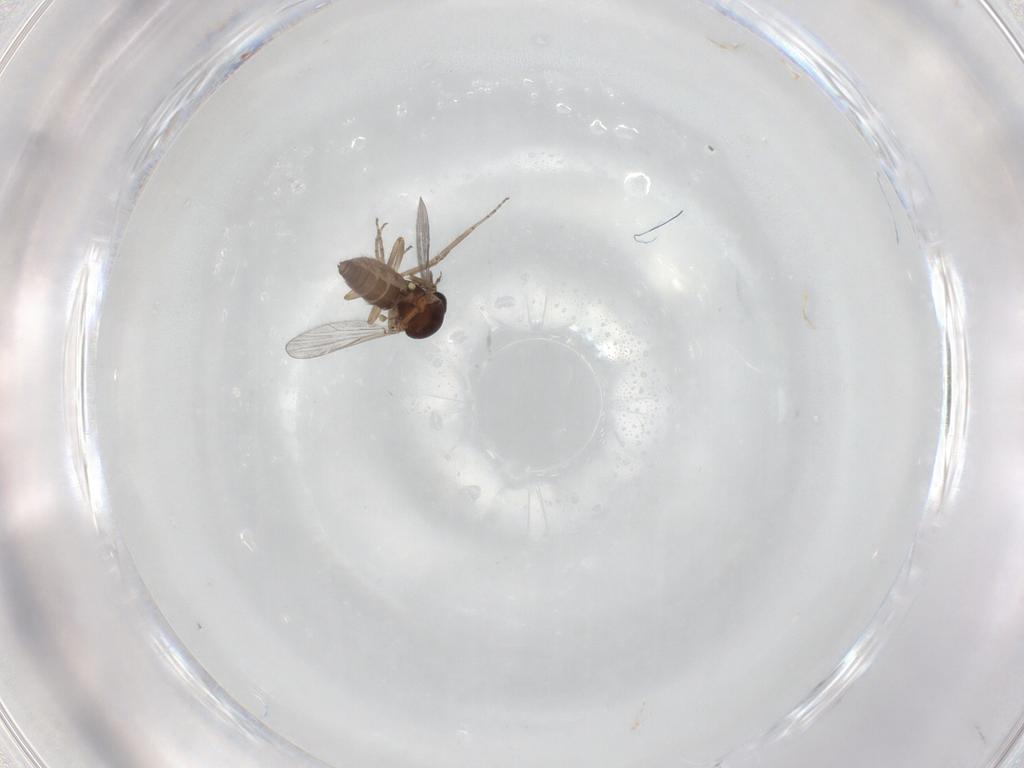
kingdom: Animalia
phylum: Arthropoda
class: Insecta
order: Diptera
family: Ceratopogonidae
